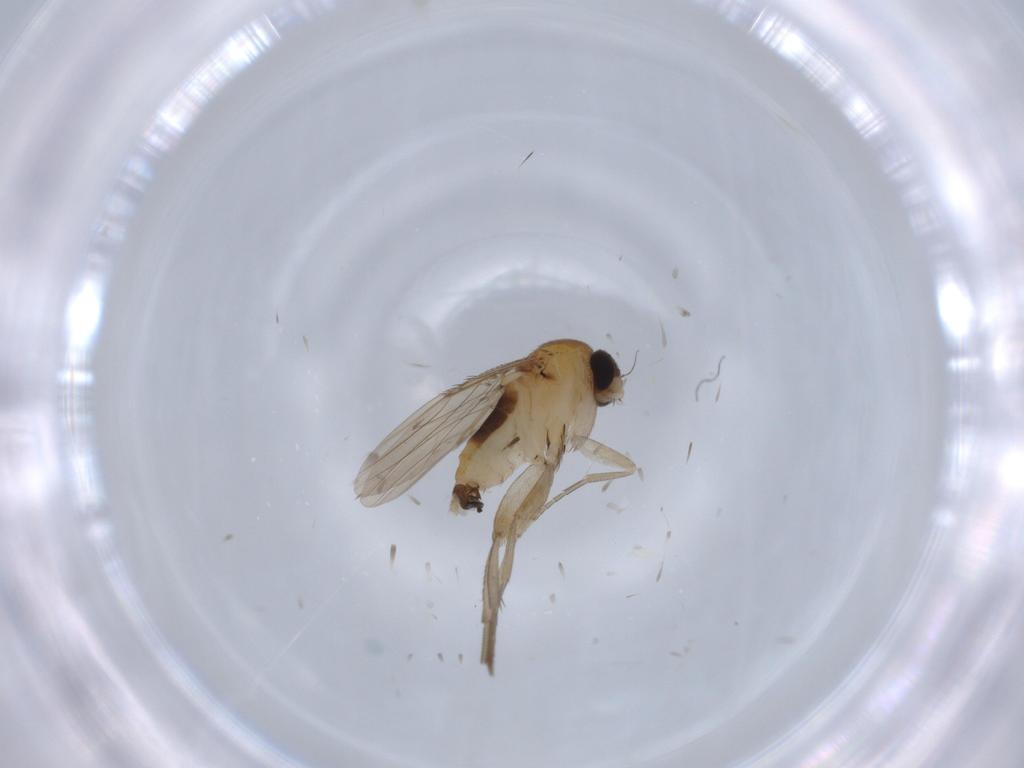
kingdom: Animalia
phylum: Arthropoda
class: Insecta
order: Diptera
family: Phoridae
